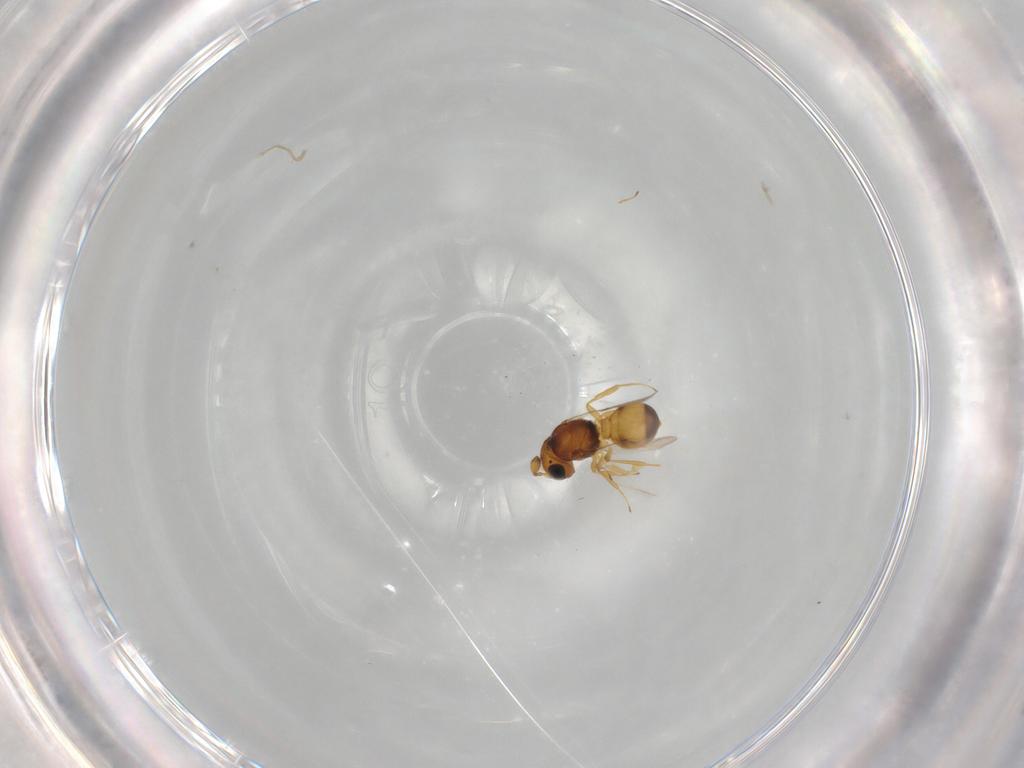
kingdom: Animalia
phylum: Arthropoda
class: Insecta
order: Hymenoptera
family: Scelionidae
